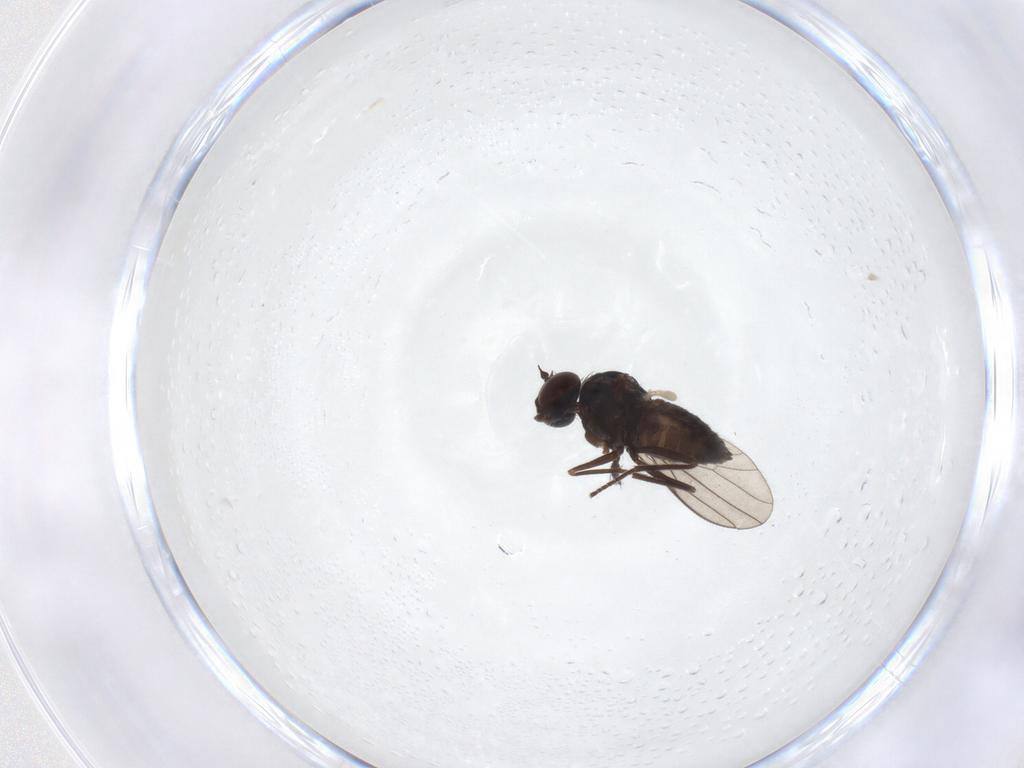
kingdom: Animalia
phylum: Arthropoda
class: Insecta
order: Diptera
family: Dolichopodidae
